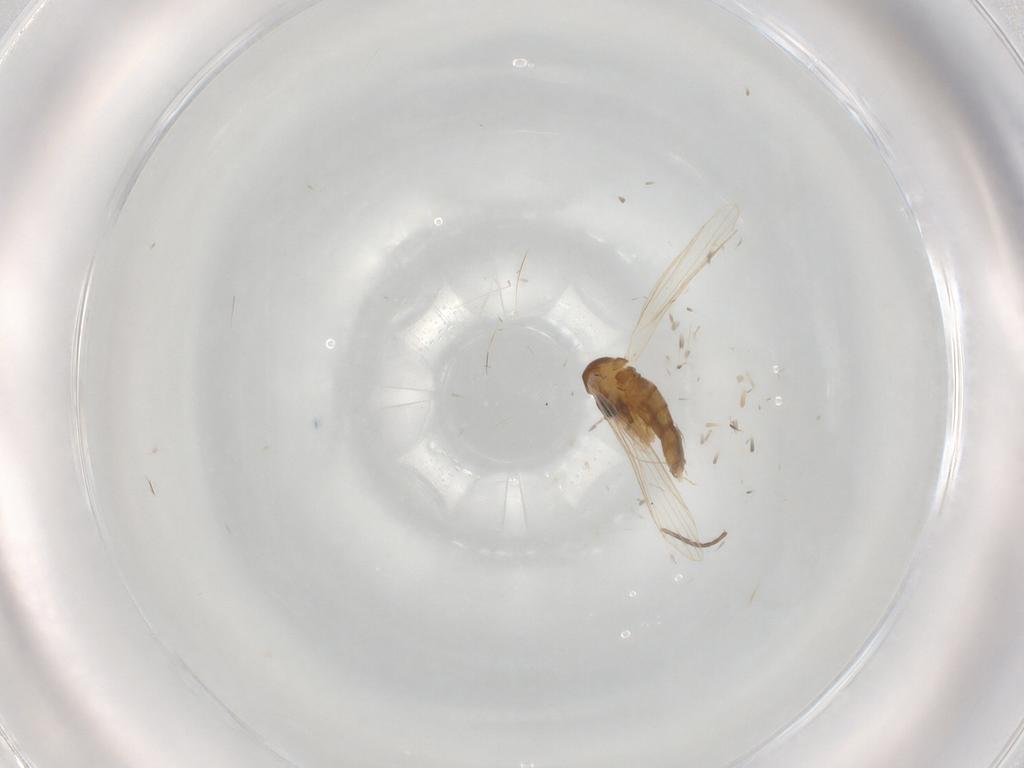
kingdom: Animalia
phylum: Arthropoda
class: Insecta
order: Diptera
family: Psychodidae
